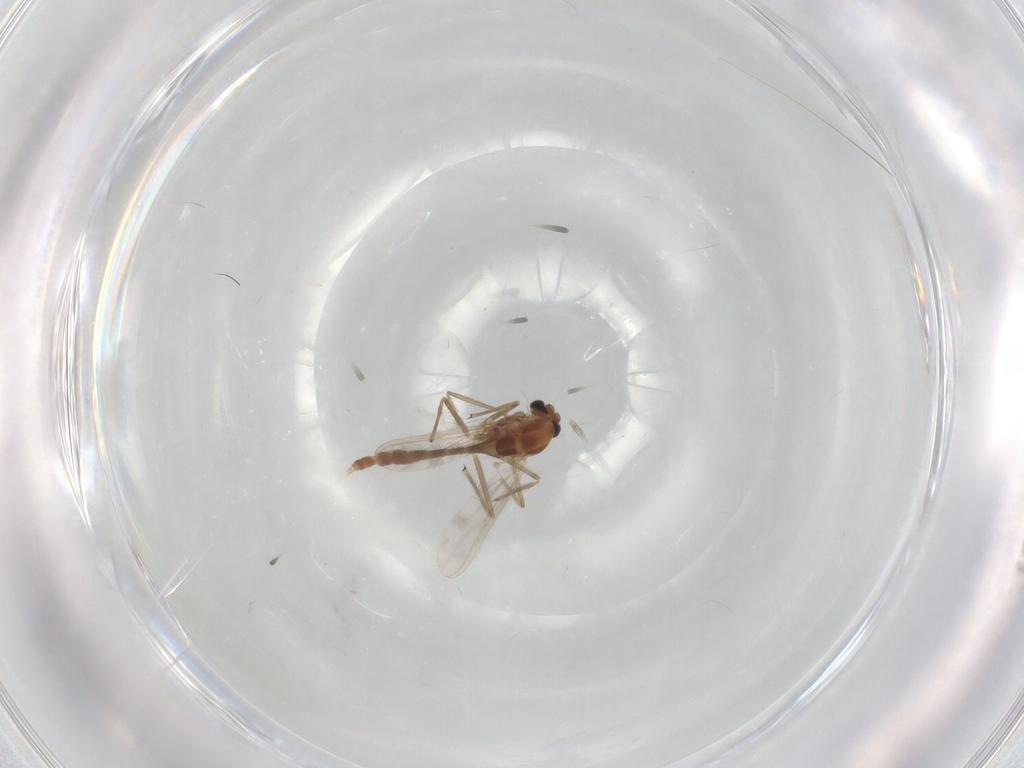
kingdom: Animalia
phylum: Arthropoda
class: Insecta
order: Diptera
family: Chironomidae
